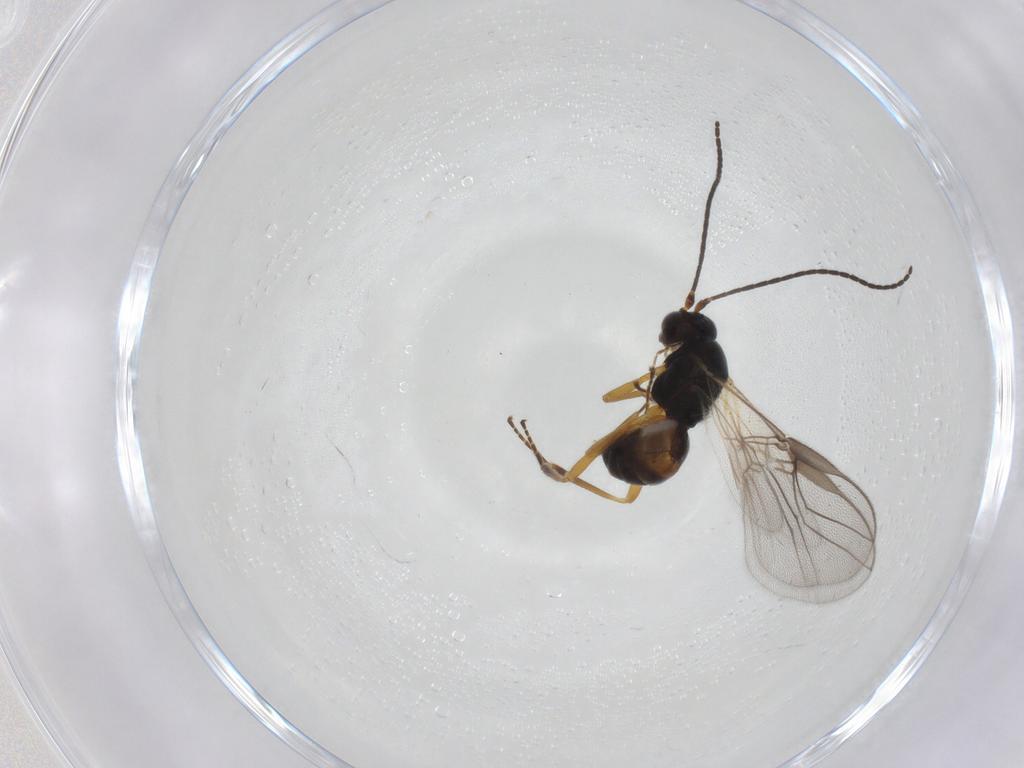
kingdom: Animalia
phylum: Arthropoda
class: Insecta
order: Hymenoptera
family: Braconidae
